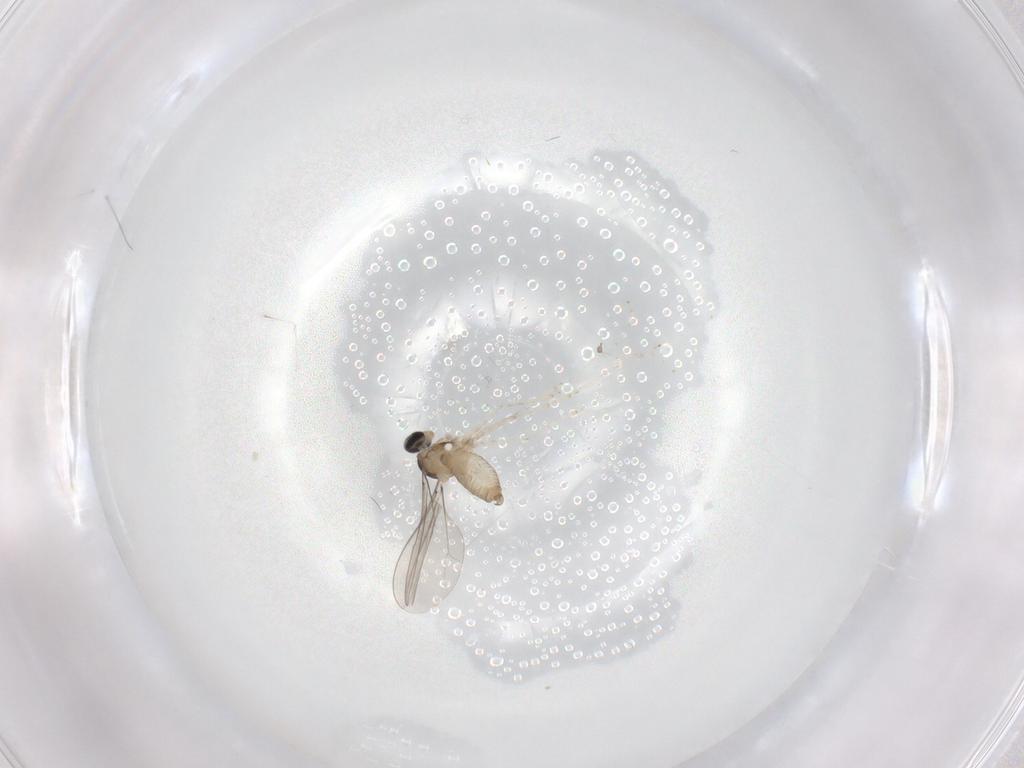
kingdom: Animalia
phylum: Arthropoda
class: Insecta
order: Diptera
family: Cecidomyiidae
